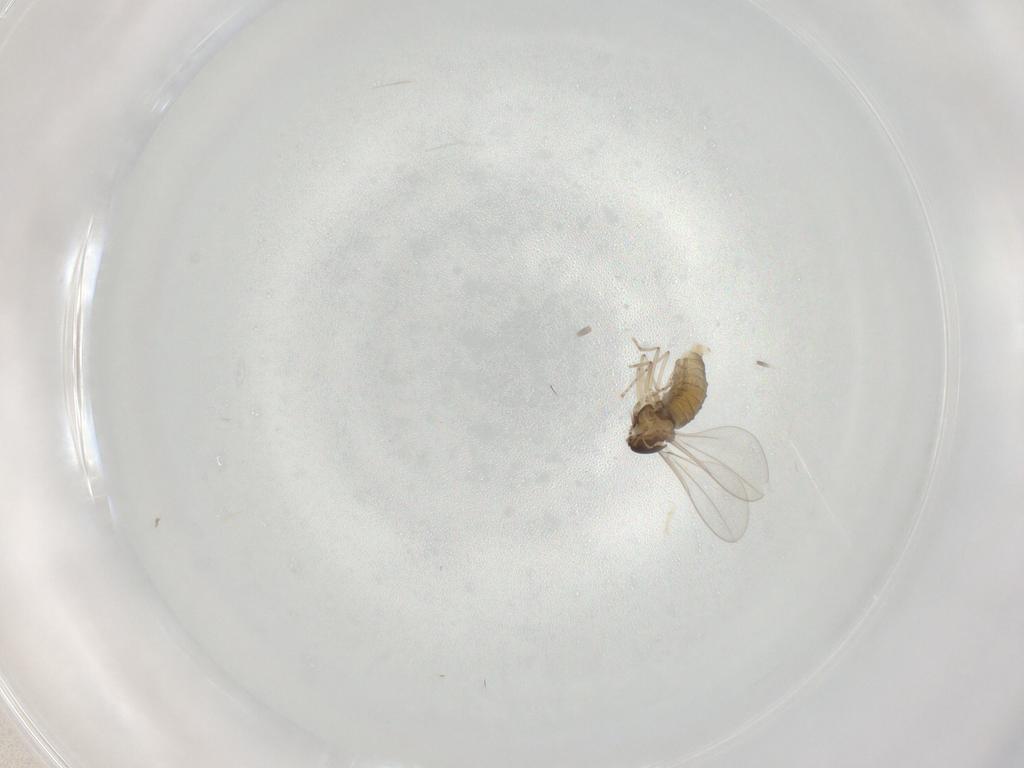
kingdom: Animalia
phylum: Arthropoda
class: Insecta
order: Diptera
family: Cecidomyiidae
